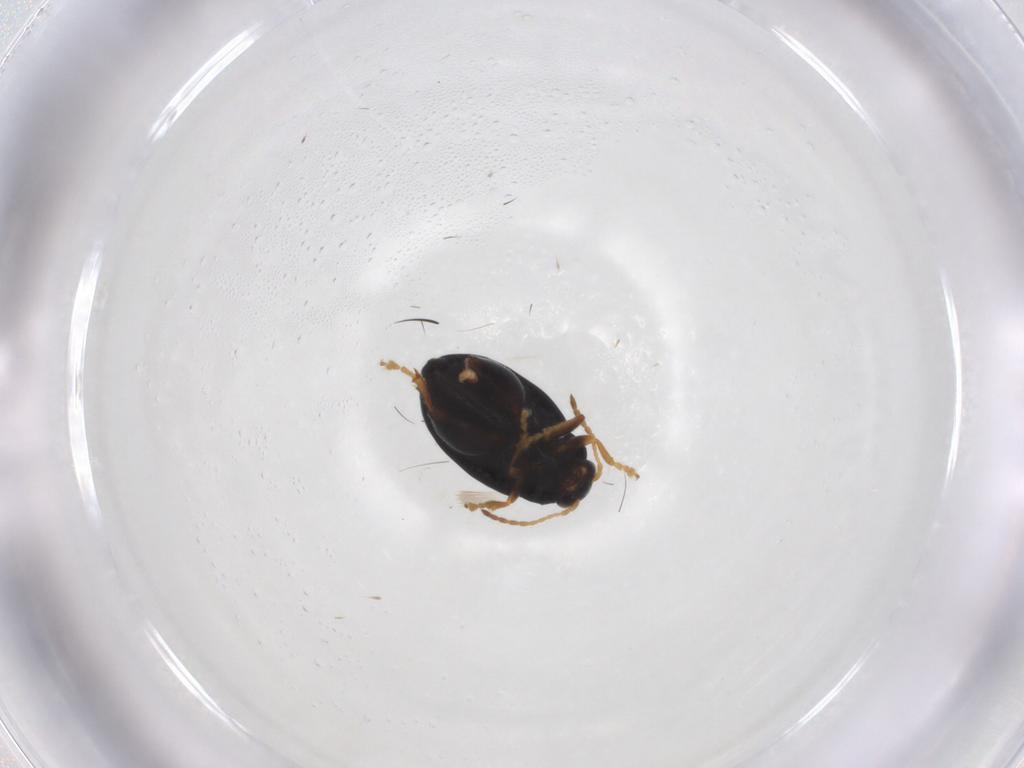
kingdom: Animalia
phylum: Arthropoda
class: Insecta
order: Coleoptera
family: Chrysomelidae
